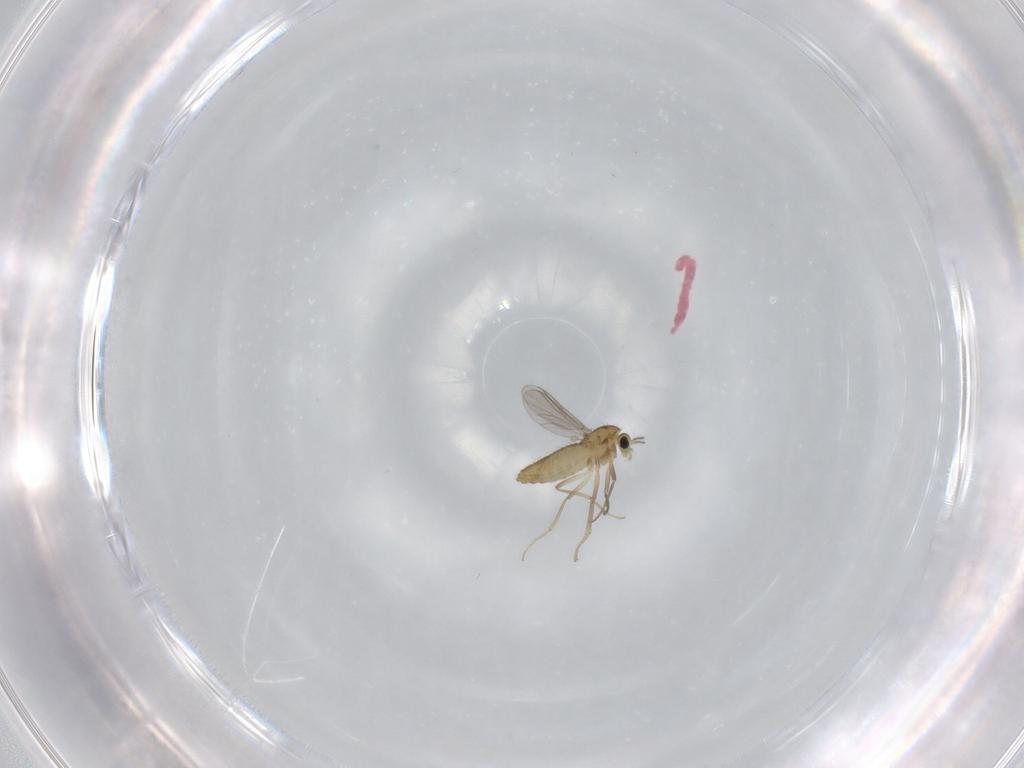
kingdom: Animalia
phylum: Arthropoda
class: Insecta
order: Diptera
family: Chironomidae
